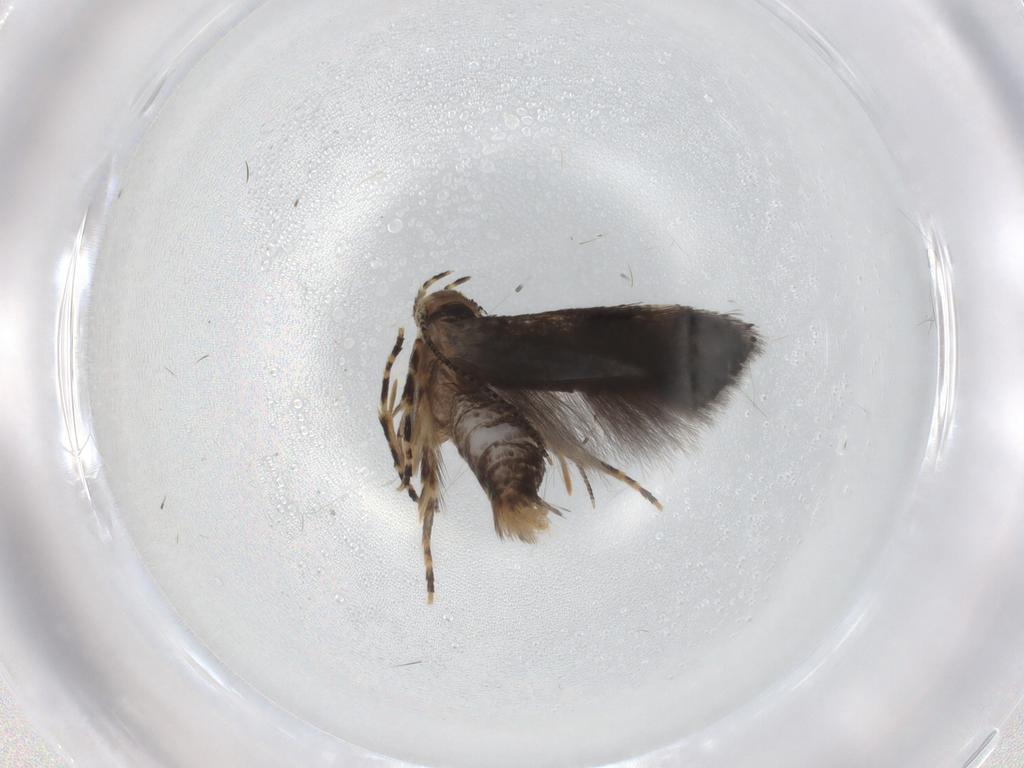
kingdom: Animalia
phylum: Arthropoda
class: Insecta
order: Lepidoptera
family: Elachistidae
